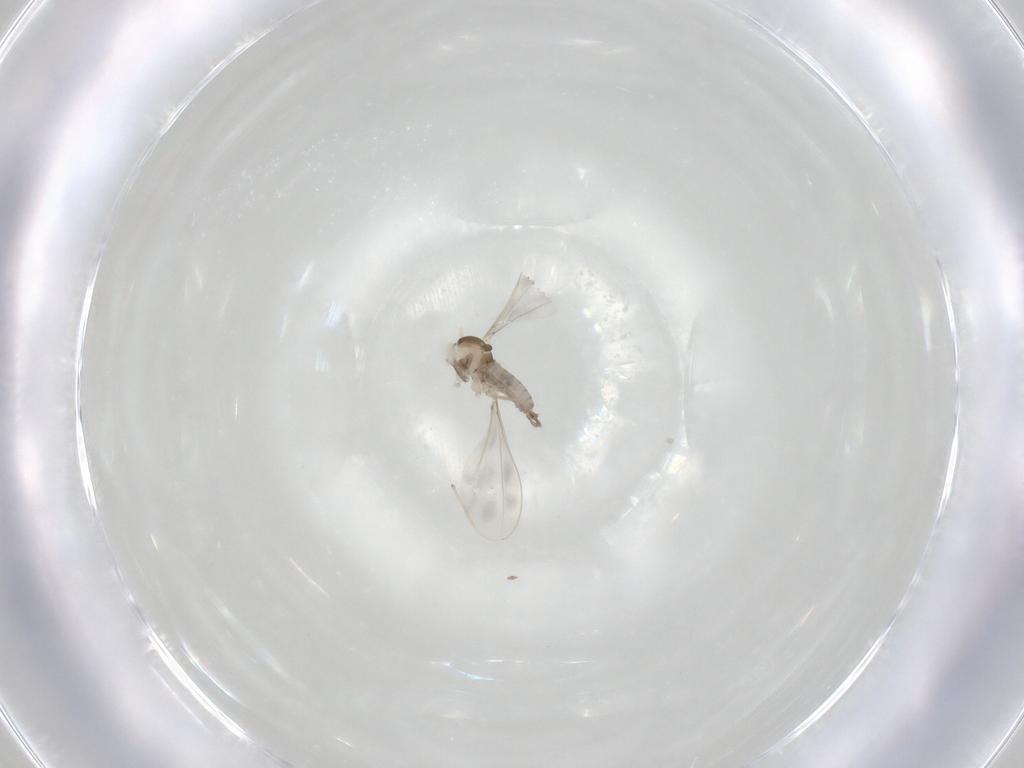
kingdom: Animalia
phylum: Arthropoda
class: Insecta
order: Diptera
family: Cecidomyiidae
